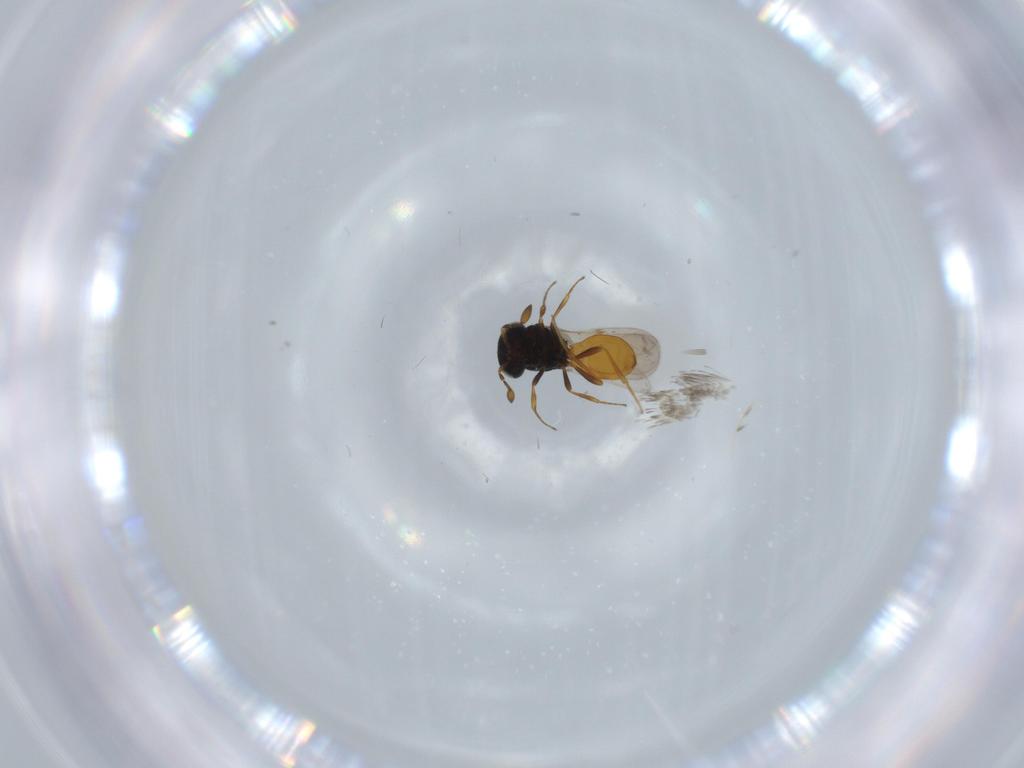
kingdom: Animalia
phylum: Arthropoda
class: Insecta
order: Hymenoptera
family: Scelionidae
